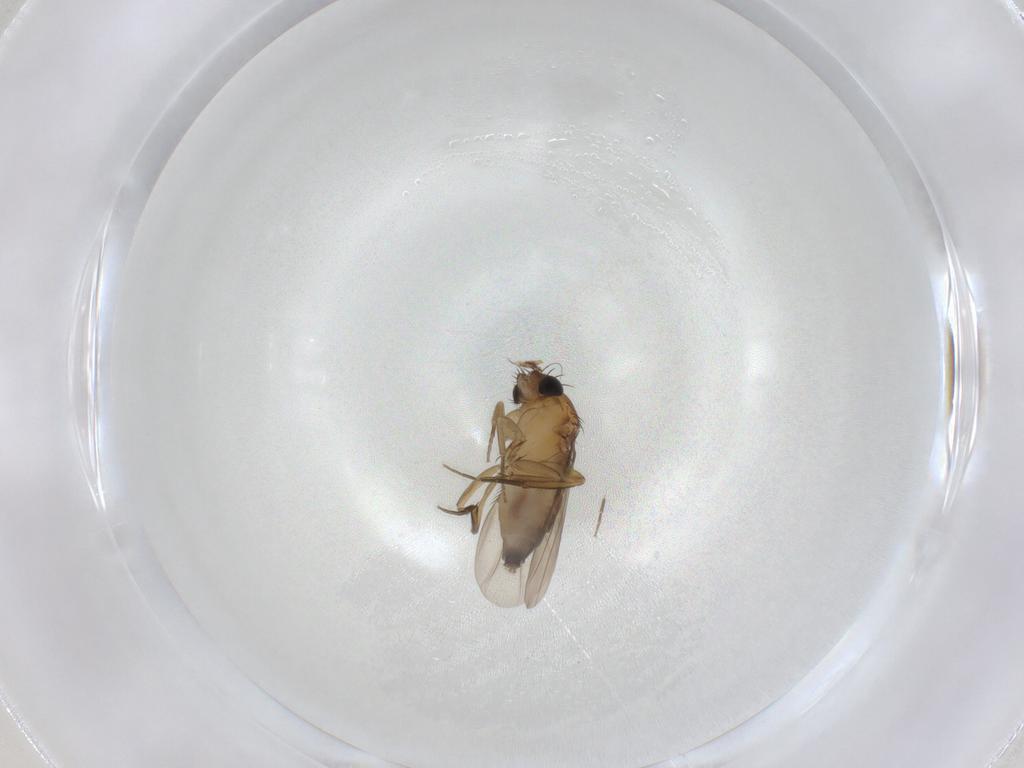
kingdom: Animalia
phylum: Arthropoda
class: Insecta
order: Diptera
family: Phoridae
